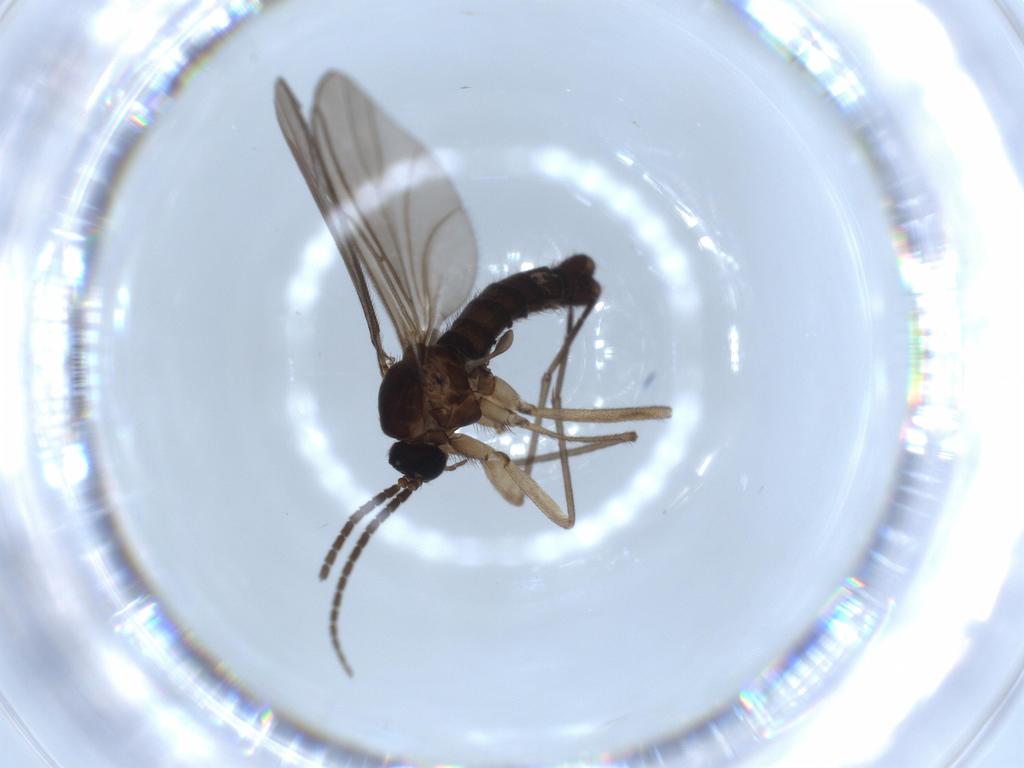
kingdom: Animalia
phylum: Arthropoda
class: Insecta
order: Diptera
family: Sciaridae
